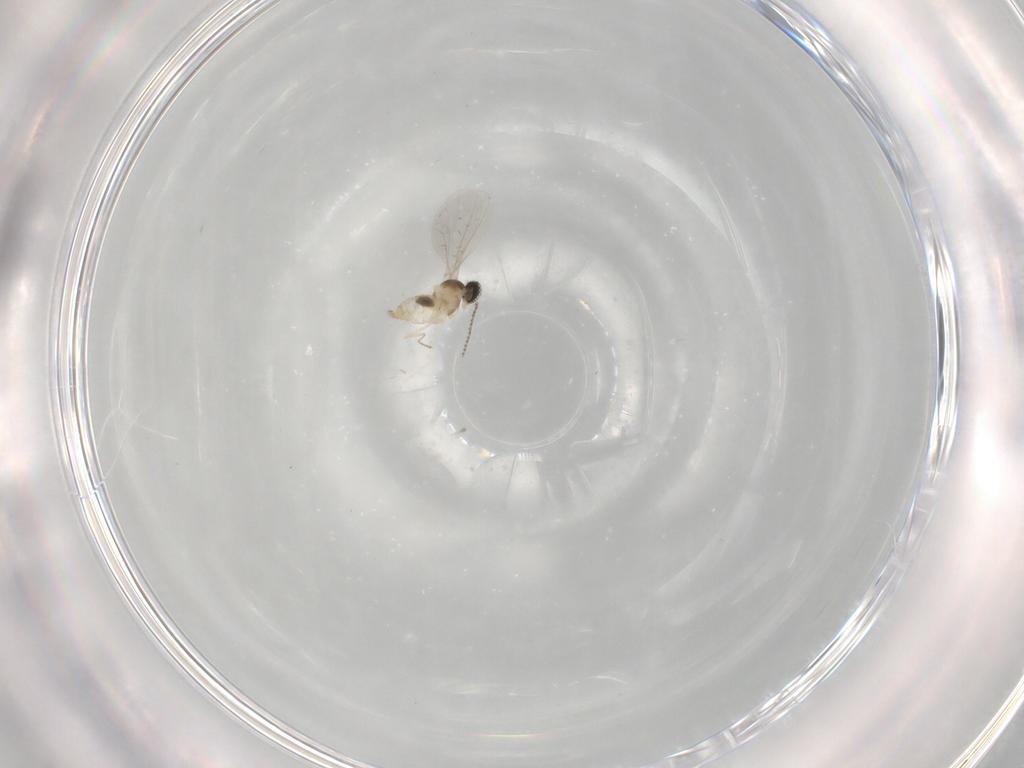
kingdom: Animalia
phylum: Arthropoda
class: Insecta
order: Diptera
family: Cecidomyiidae
